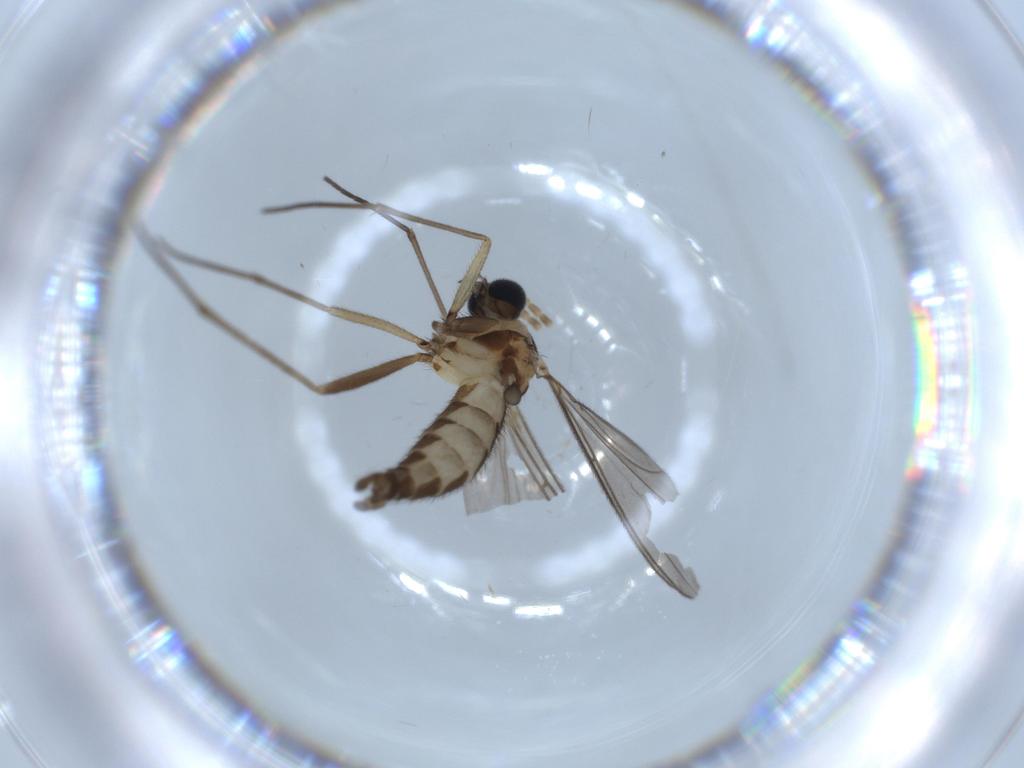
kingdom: Animalia
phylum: Arthropoda
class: Insecta
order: Diptera
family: Sciaridae
